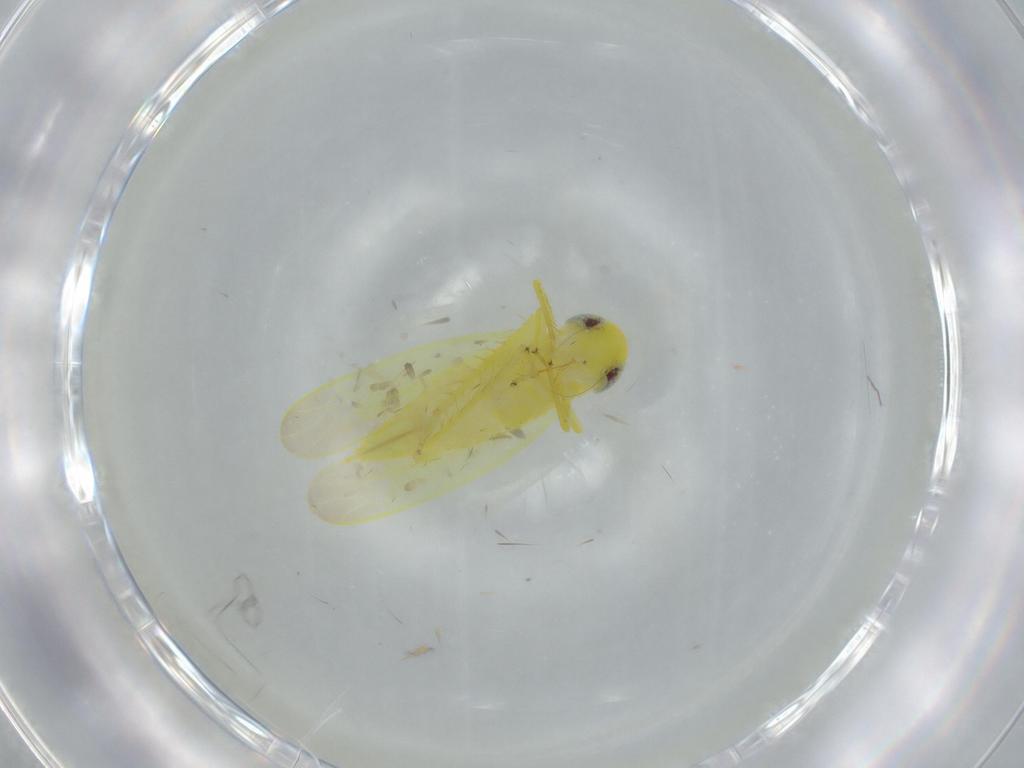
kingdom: Animalia
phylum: Arthropoda
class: Insecta
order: Hemiptera
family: Cicadellidae
